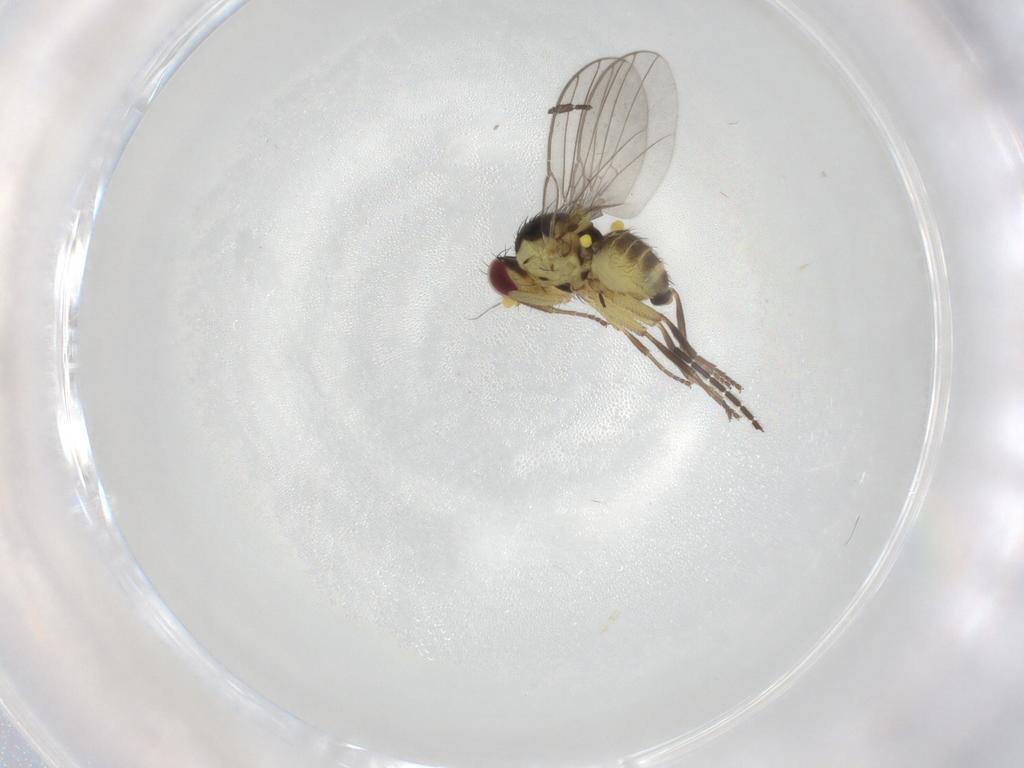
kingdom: Animalia
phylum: Arthropoda
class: Insecta
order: Diptera
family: Agromyzidae
